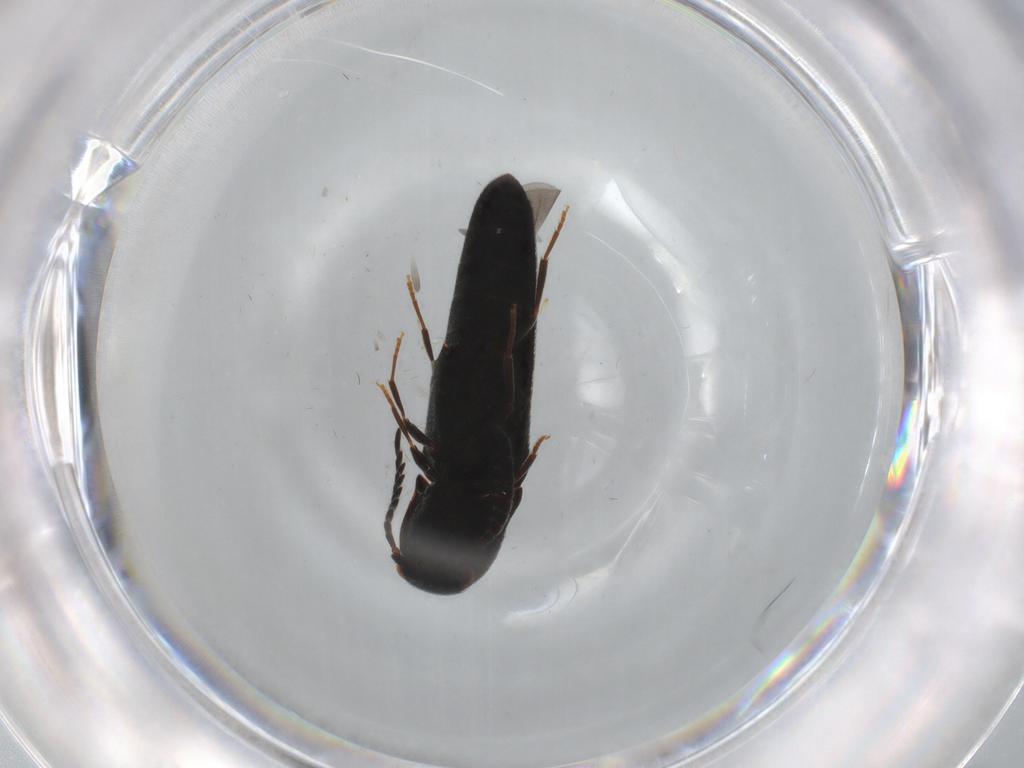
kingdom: Animalia
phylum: Arthropoda
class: Insecta
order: Coleoptera
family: Eucnemidae
